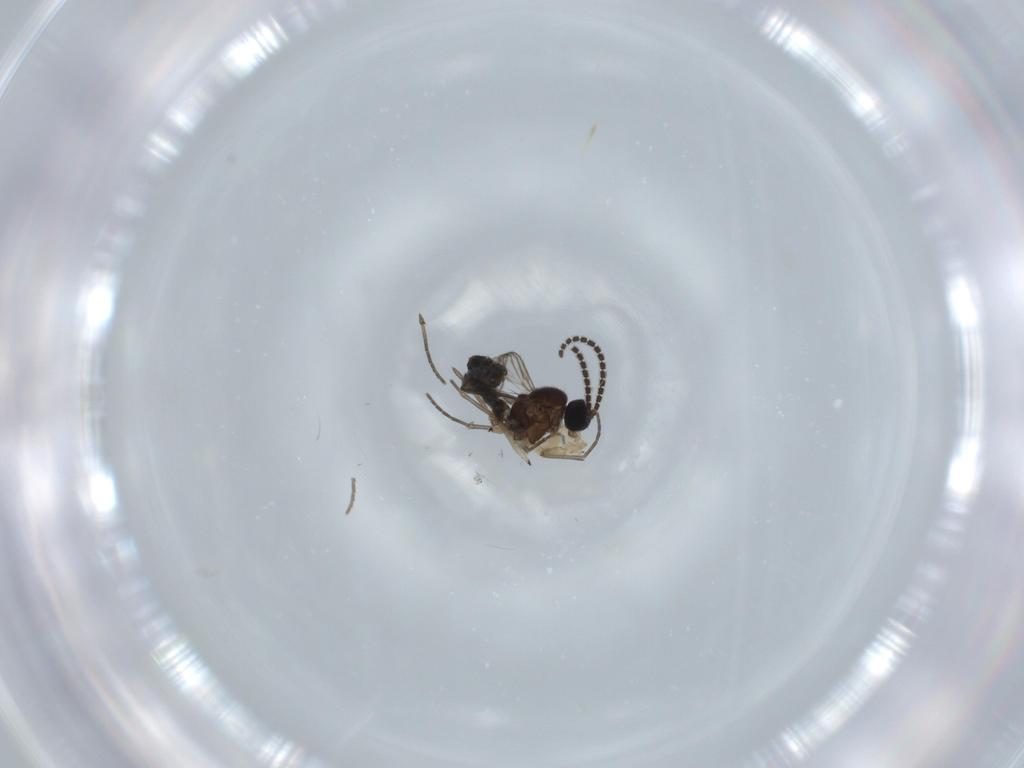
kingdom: Animalia
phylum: Arthropoda
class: Insecta
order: Diptera
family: Sciaridae
